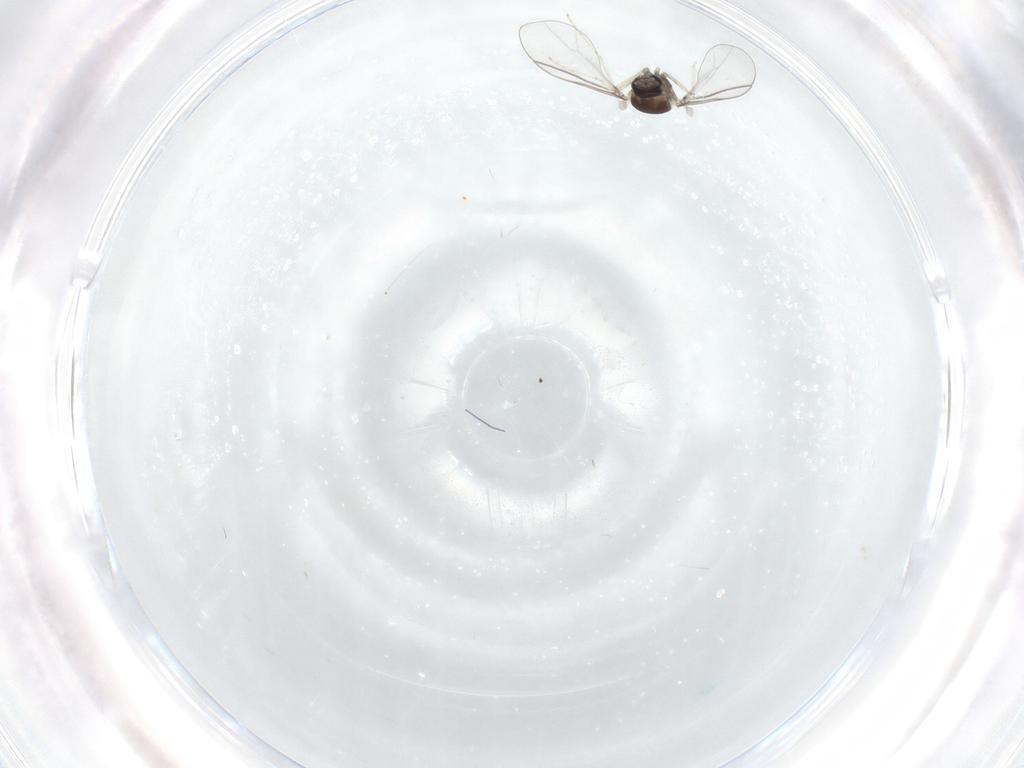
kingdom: Animalia
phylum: Arthropoda
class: Insecta
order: Diptera
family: Cecidomyiidae
